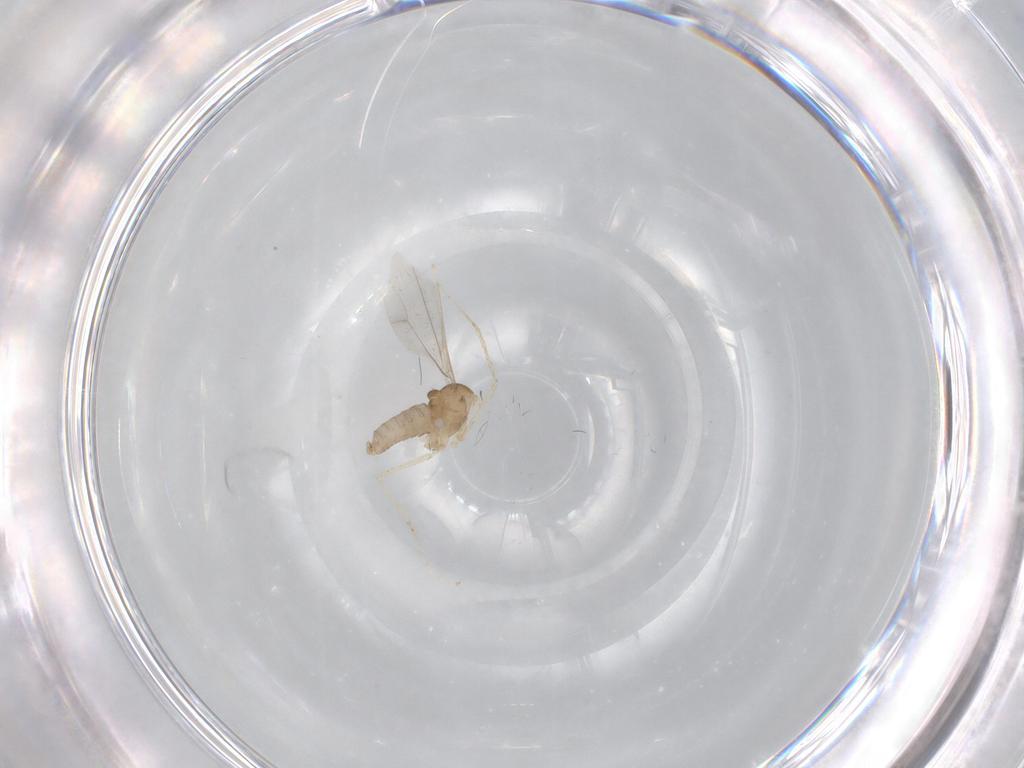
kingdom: Animalia
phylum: Arthropoda
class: Insecta
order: Diptera
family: Cecidomyiidae
